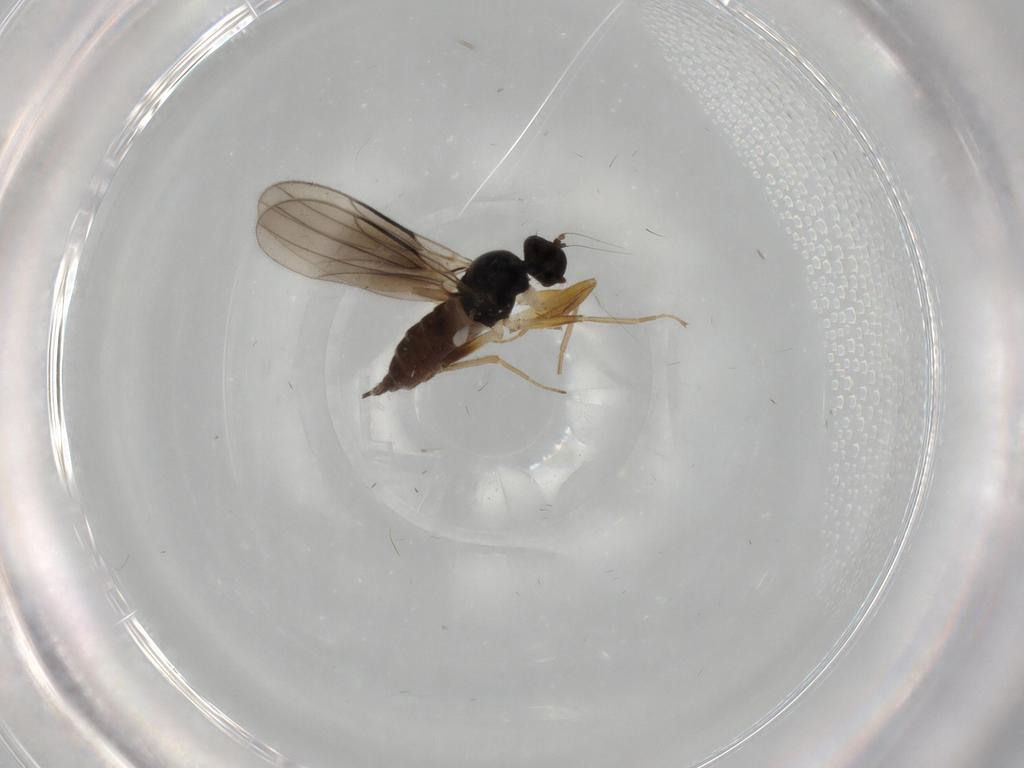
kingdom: Animalia
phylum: Arthropoda
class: Insecta
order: Diptera
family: Hybotidae
